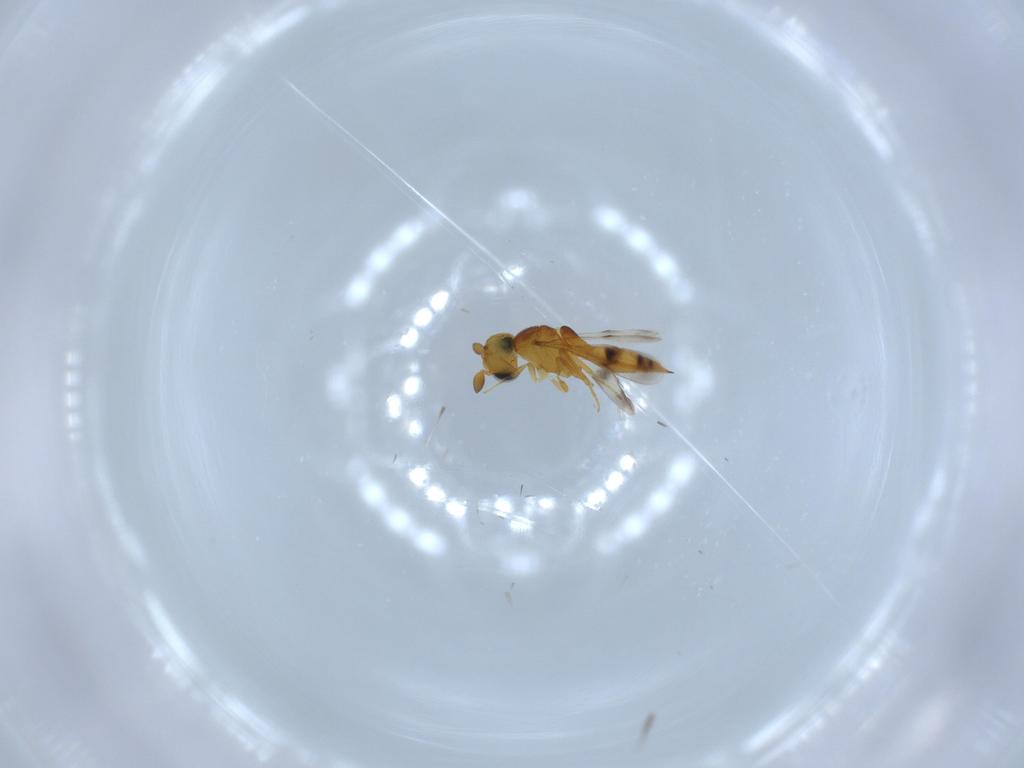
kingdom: Animalia
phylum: Arthropoda
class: Insecta
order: Hymenoptera
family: Scelionidae
